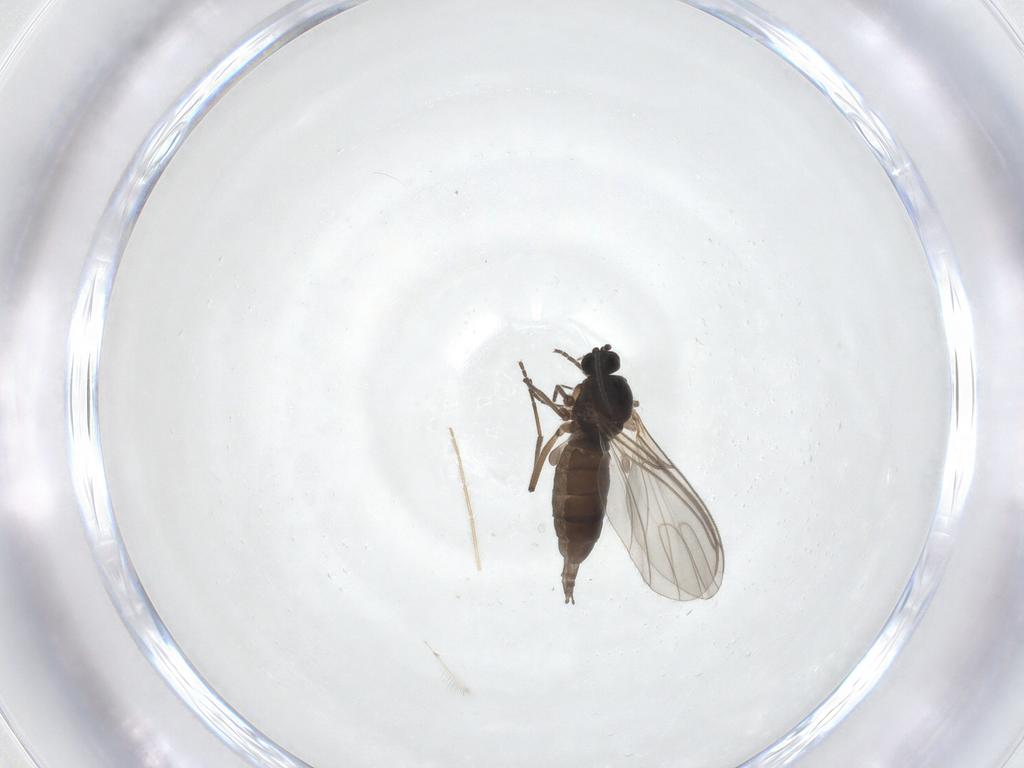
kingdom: Animalia
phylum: Arthropoda
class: Insecta
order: Diptera
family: Chironomidae
